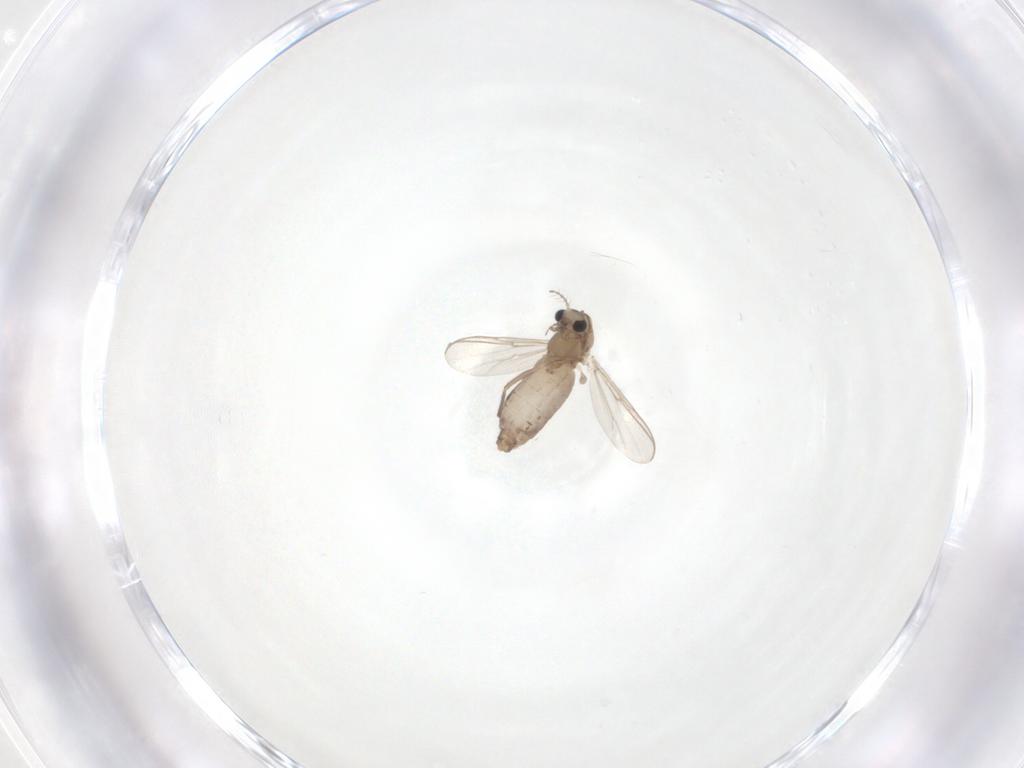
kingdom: Animalia
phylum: Arthropoda
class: Insecta
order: Diptera
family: Chironomidae
